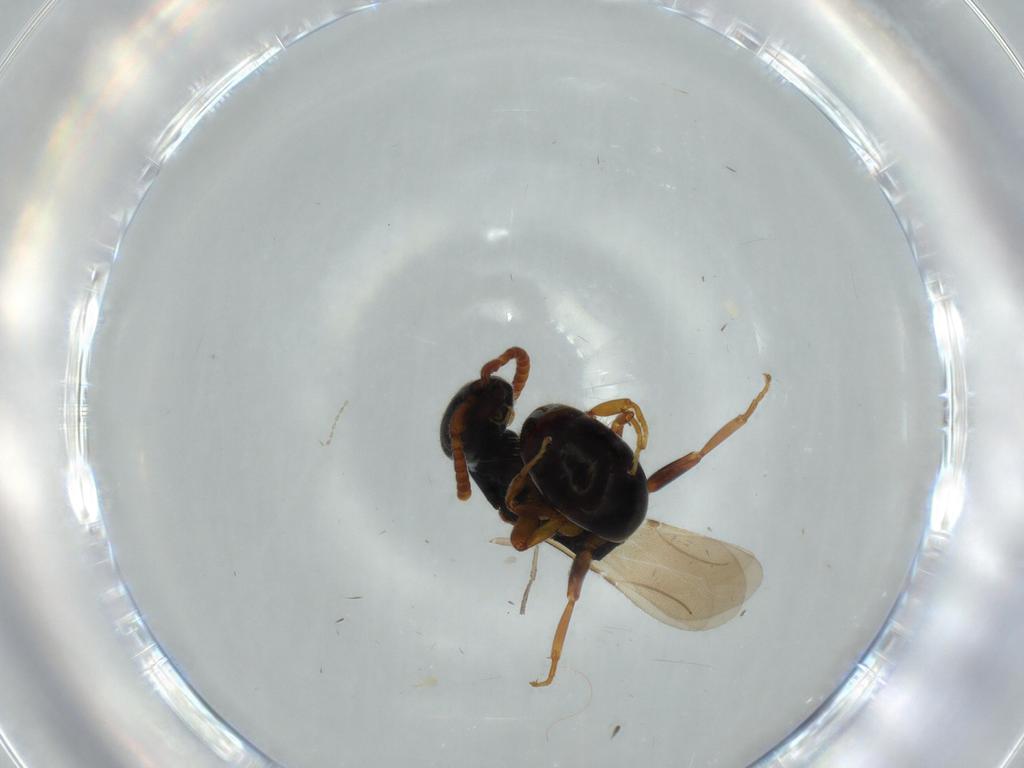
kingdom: Animalia
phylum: Arthropoda
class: Insecta
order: Hymenoptera
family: Bethylidae
